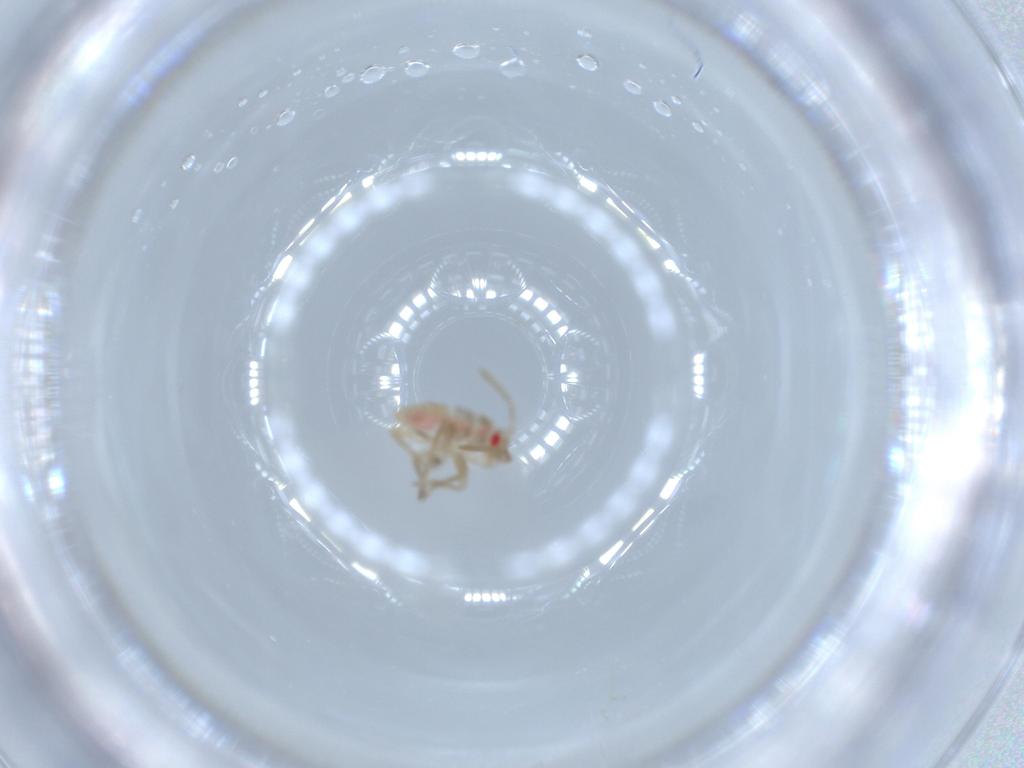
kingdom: Animalia
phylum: Arthropoda
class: Insecta
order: Hemiptera
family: Miridae
